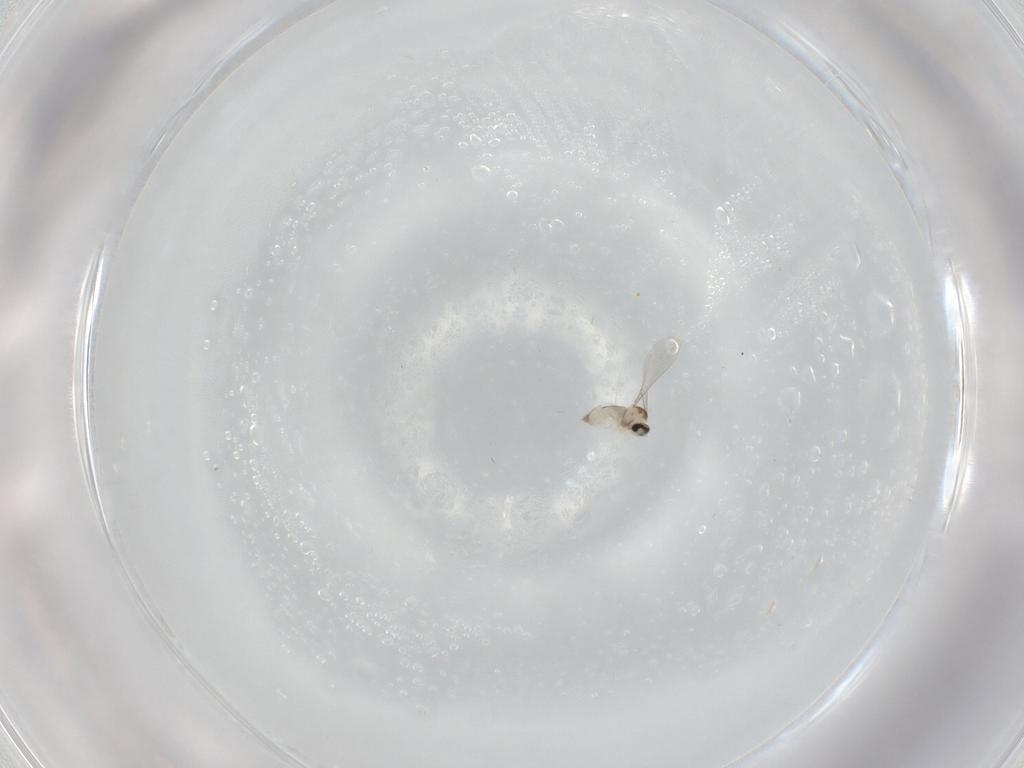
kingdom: Animalia
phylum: Arthropoda
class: Insecta
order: Diptera
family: Cecidomyiidae
